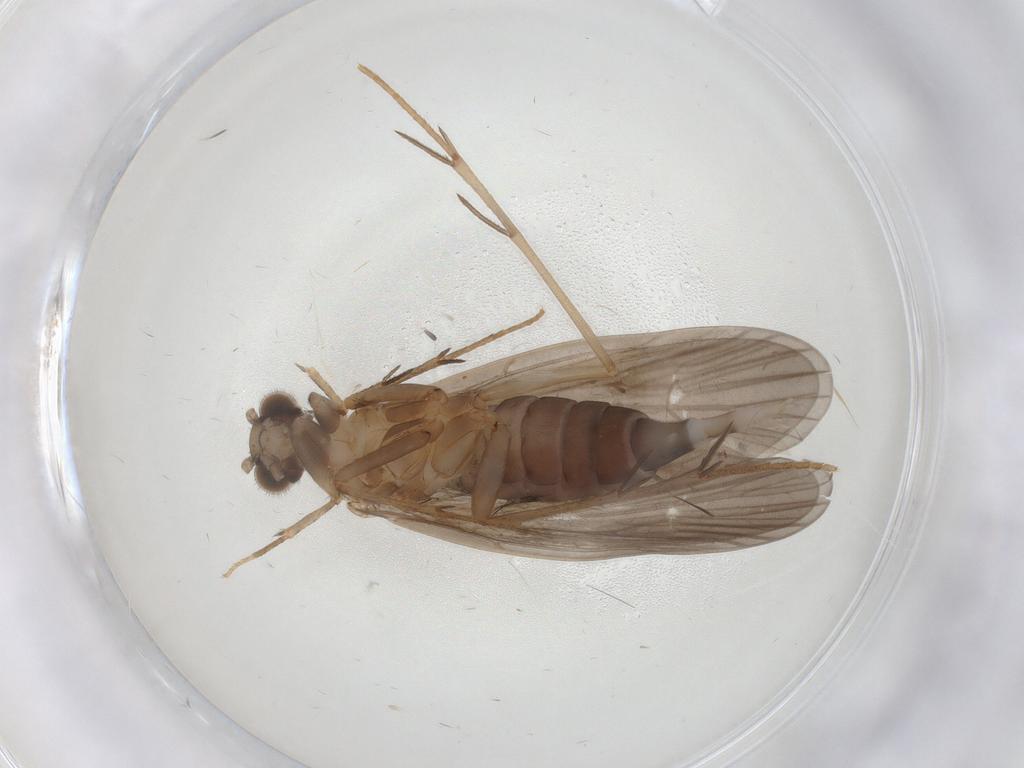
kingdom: Animalia
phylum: Arthropoda
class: Insecta
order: Trichoptera
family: Philopotamidae
